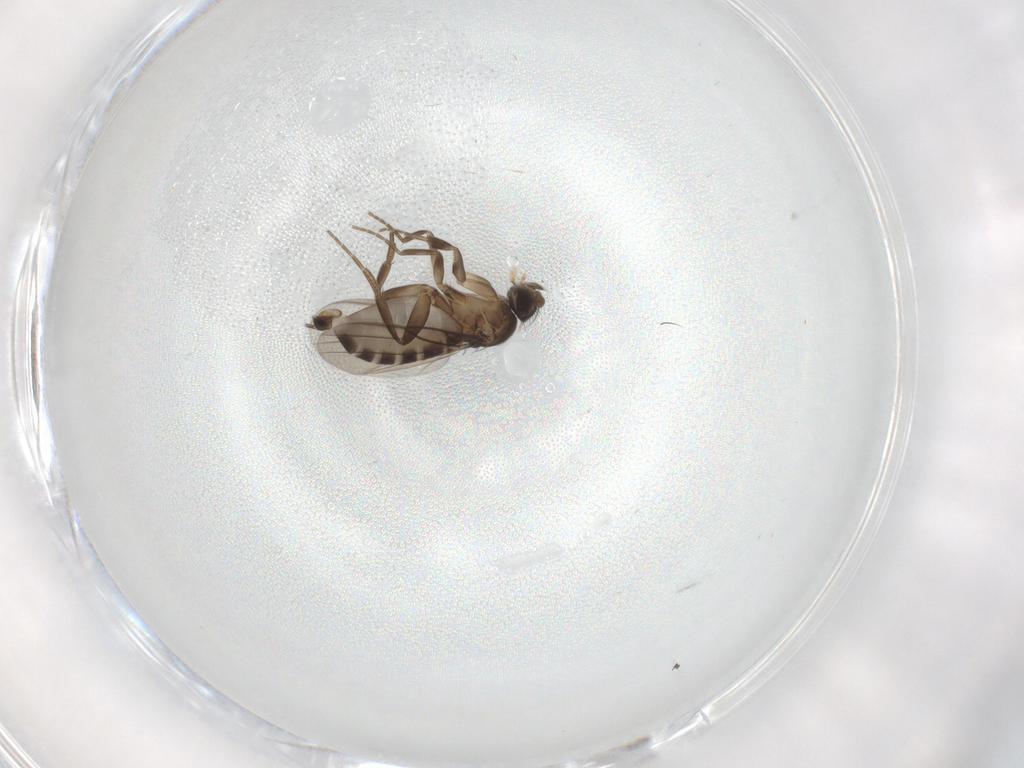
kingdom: Animalia
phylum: Arthropoda
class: Insecta
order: Diptera
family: Phoridae
